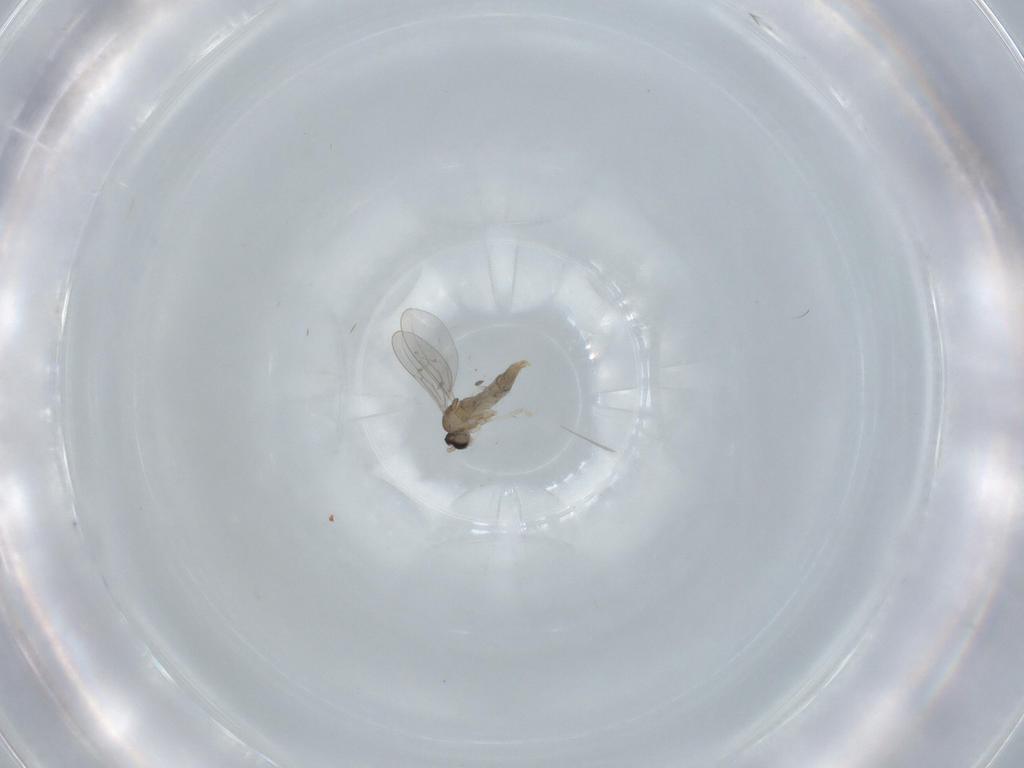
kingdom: Animalia
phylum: Arthropoda
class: Insecta
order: Diptera
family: Cecidomyiidae
